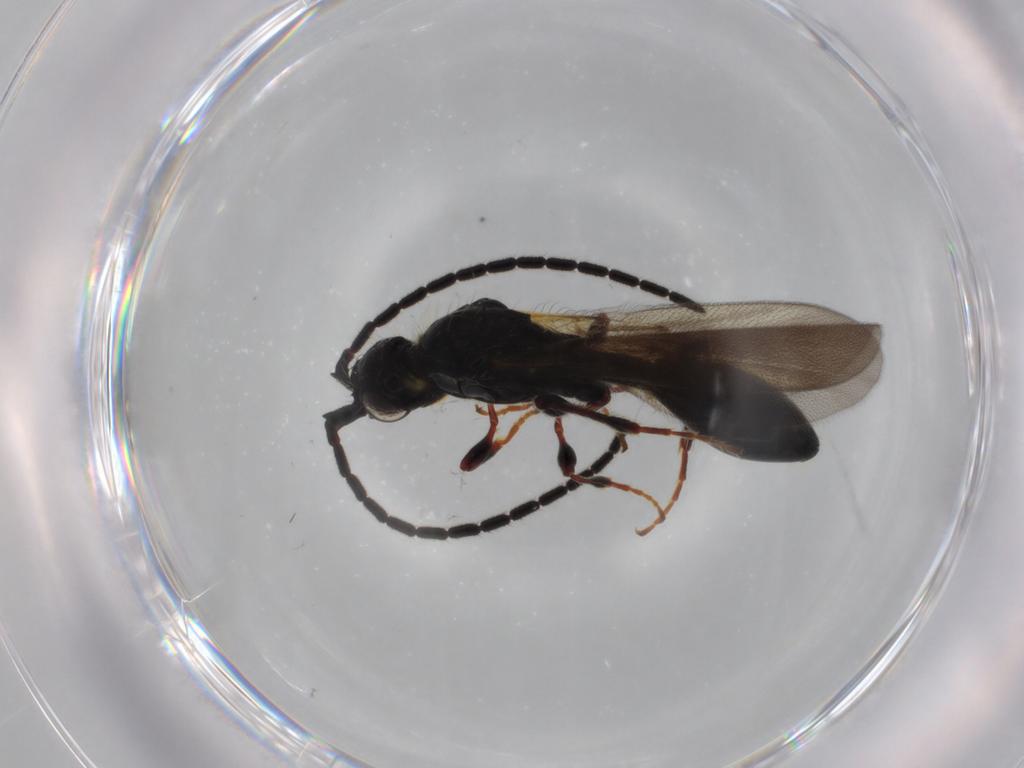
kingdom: Animalia
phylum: Arthropoda
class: Insecta
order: Hymenoptera
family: Diapriidae
